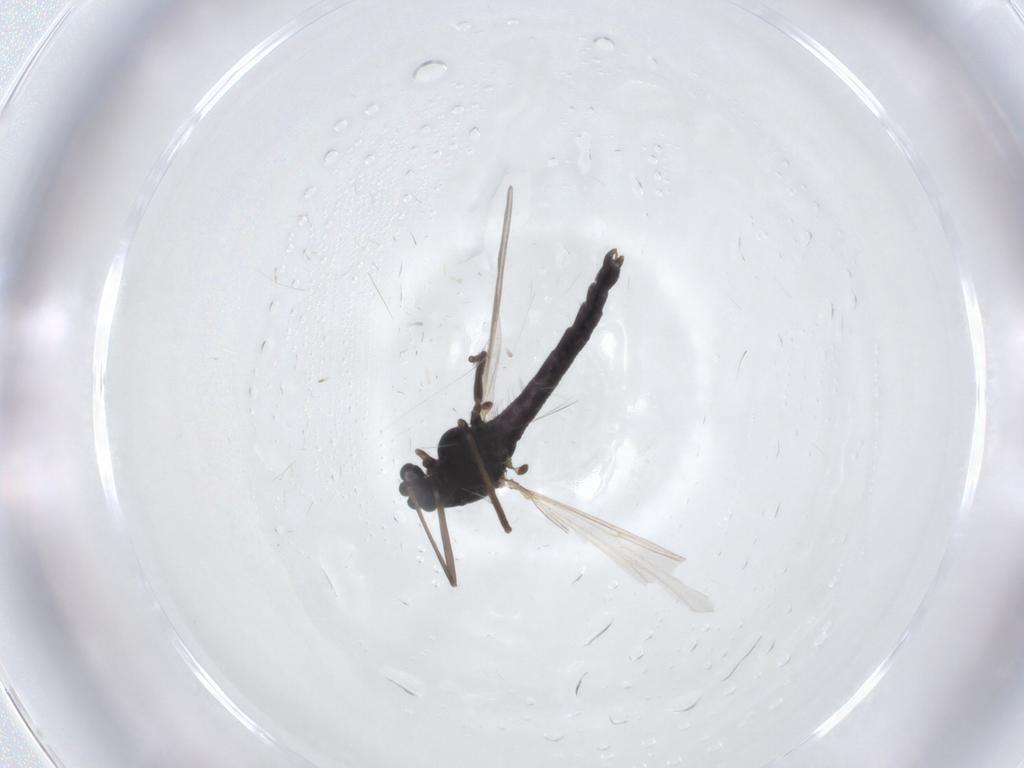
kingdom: Animalia
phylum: Arthropoda
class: Insecta
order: Diptera
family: Chironomidae
